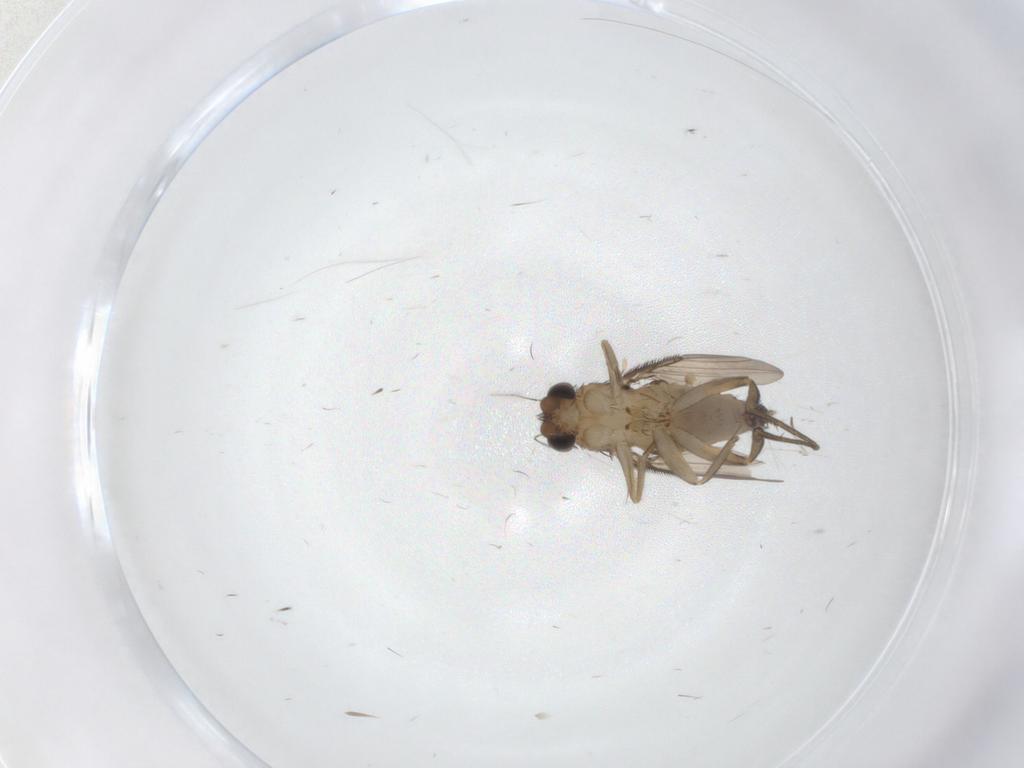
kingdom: Animalia
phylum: Arthropoda
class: Insecta
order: Diptera
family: Phoridae
